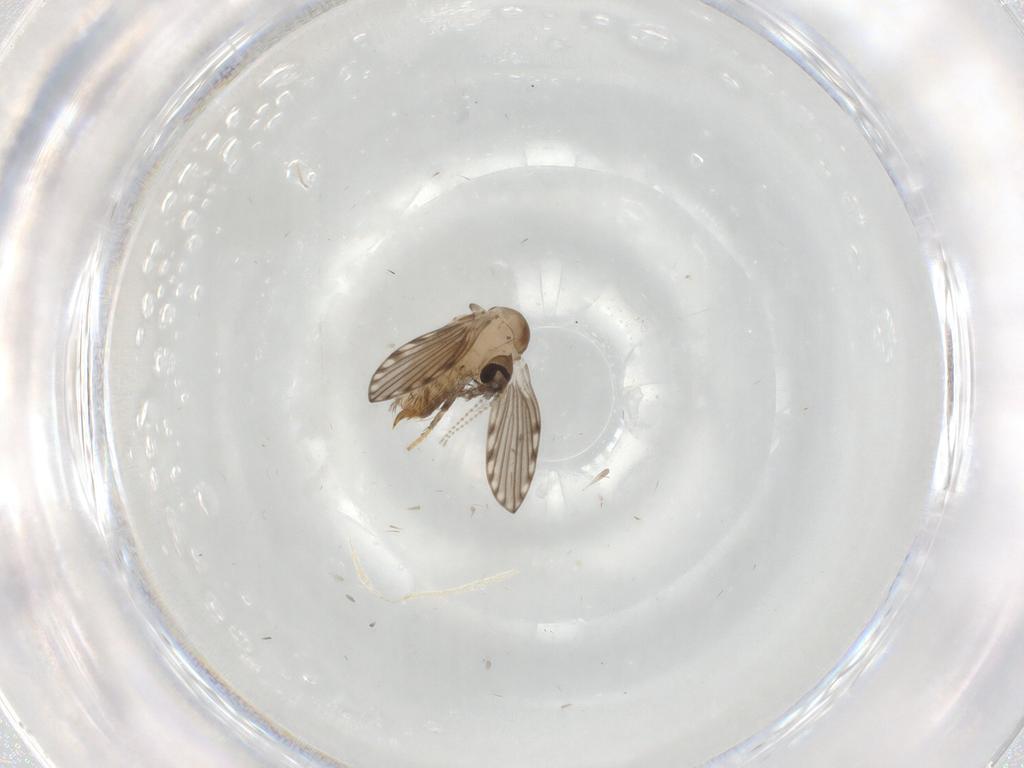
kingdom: Animalia
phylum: Arthropoda
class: Insecta
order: Diptera
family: Psychodidae
